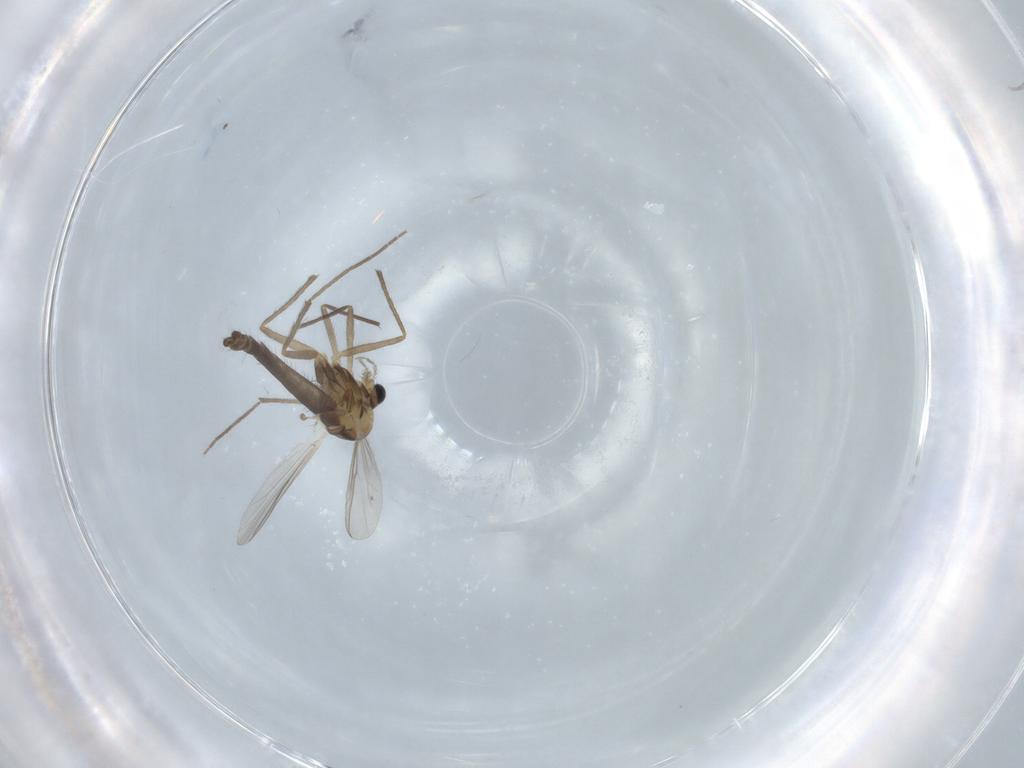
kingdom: Animalia
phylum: Arthropoda
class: Insecta
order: Diptera
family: Chironomidae
